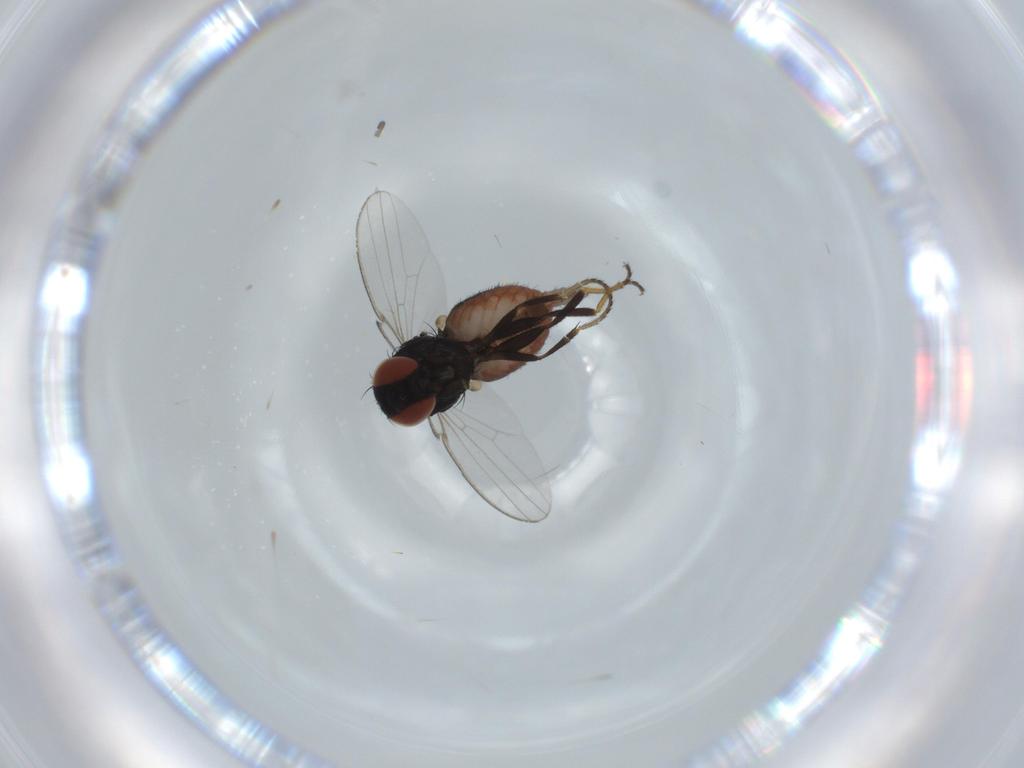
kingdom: Animalia
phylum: Arthropoda
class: Insecta
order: Diptera
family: Milichiidae
